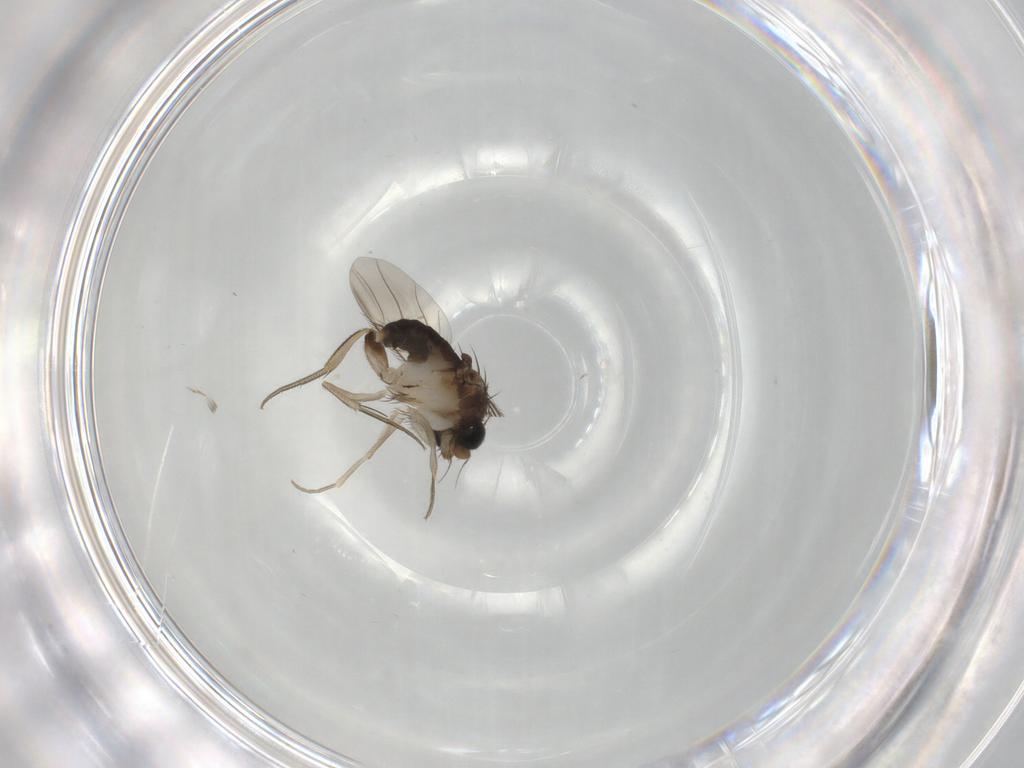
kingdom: Animalia
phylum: Arthropoda
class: Insecta
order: Diptera
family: Phoridae
